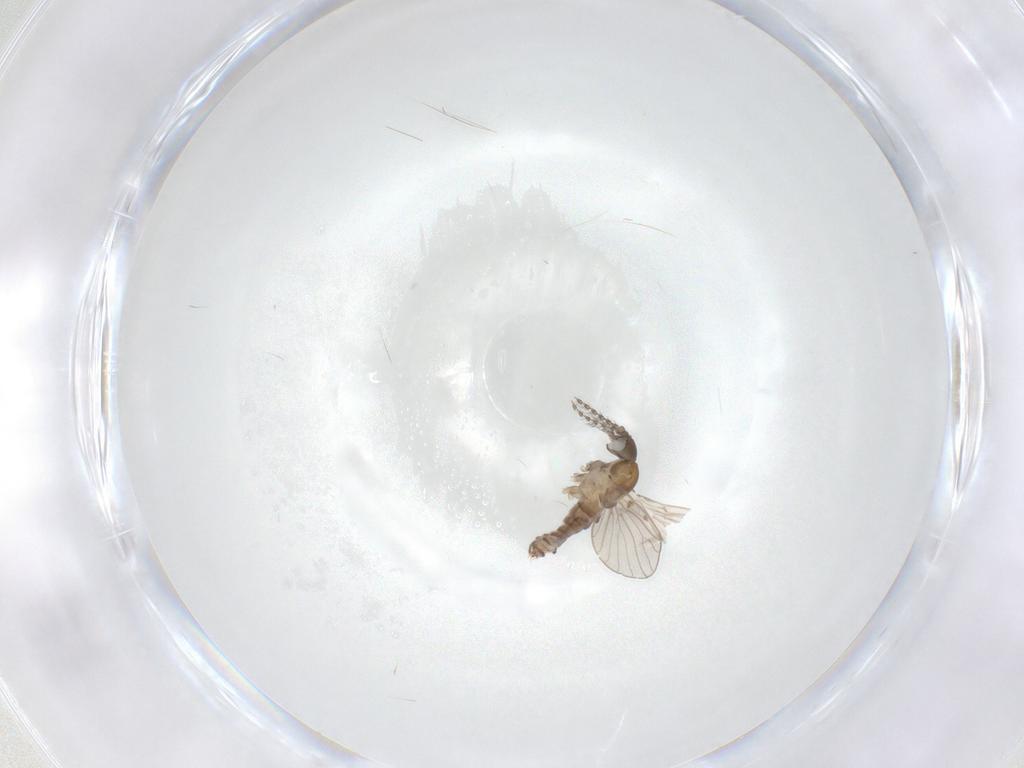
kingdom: Animalia
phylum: Arthropoda
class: Insecta
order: Diptera
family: Psychodidae
